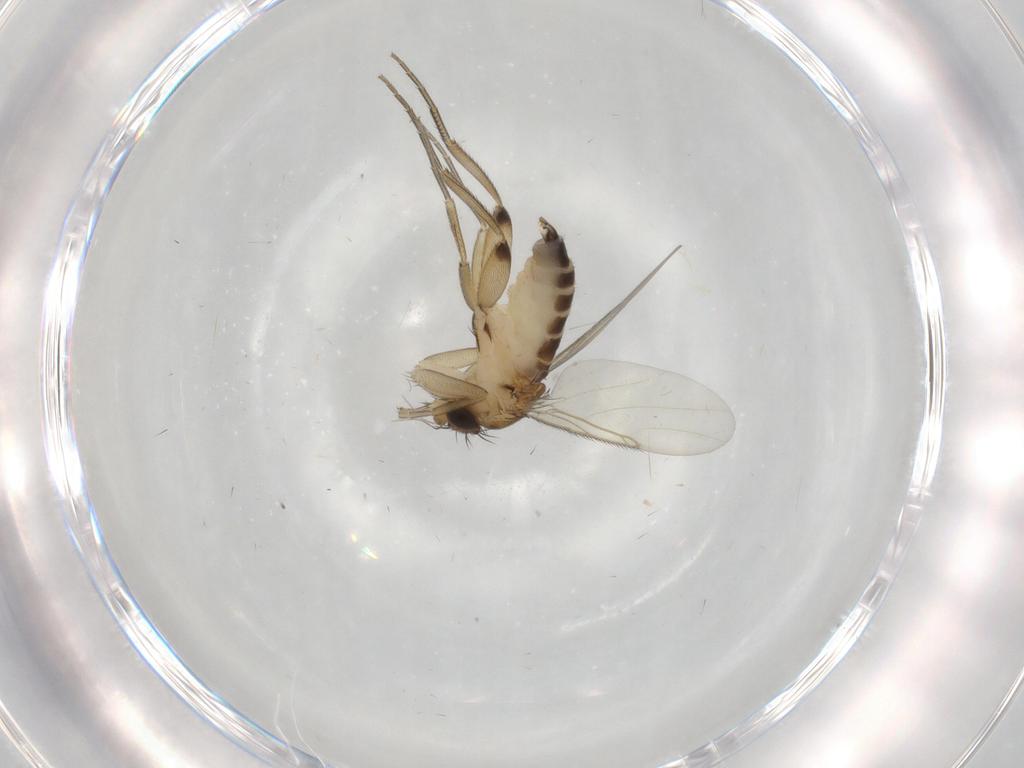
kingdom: Animalia
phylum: Arthropoda
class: Insecta
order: Diptera
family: Phoridae
